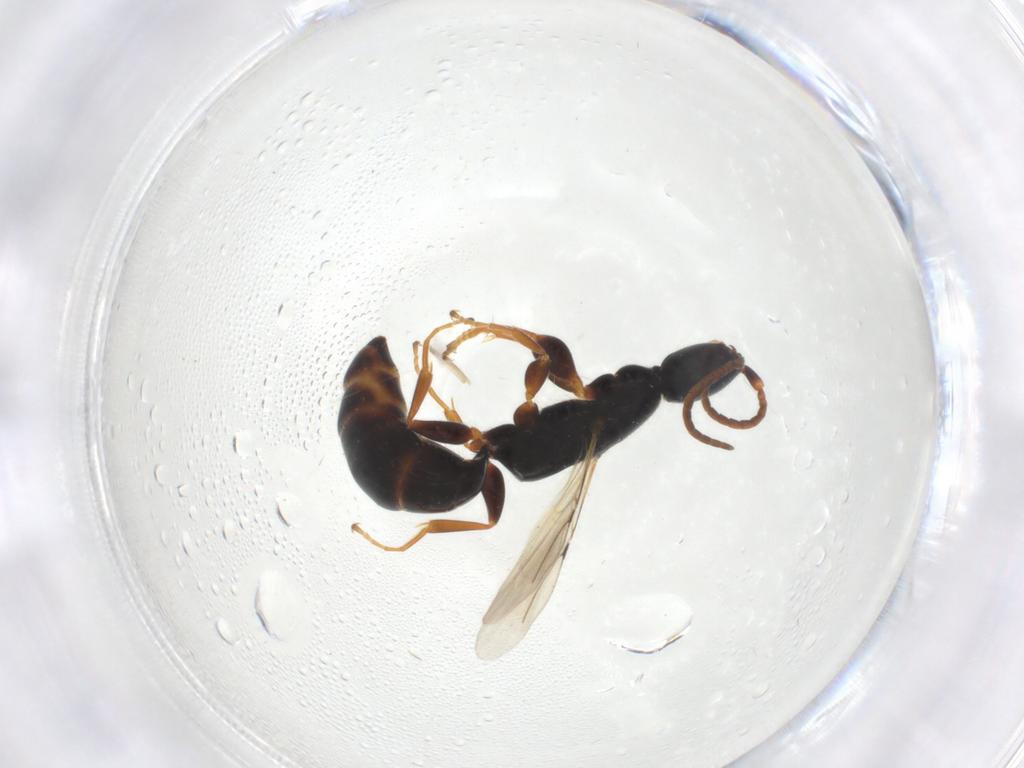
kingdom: Animalia
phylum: Arthropoda
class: Insecta
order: Hymenoptera
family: Bethylidae
